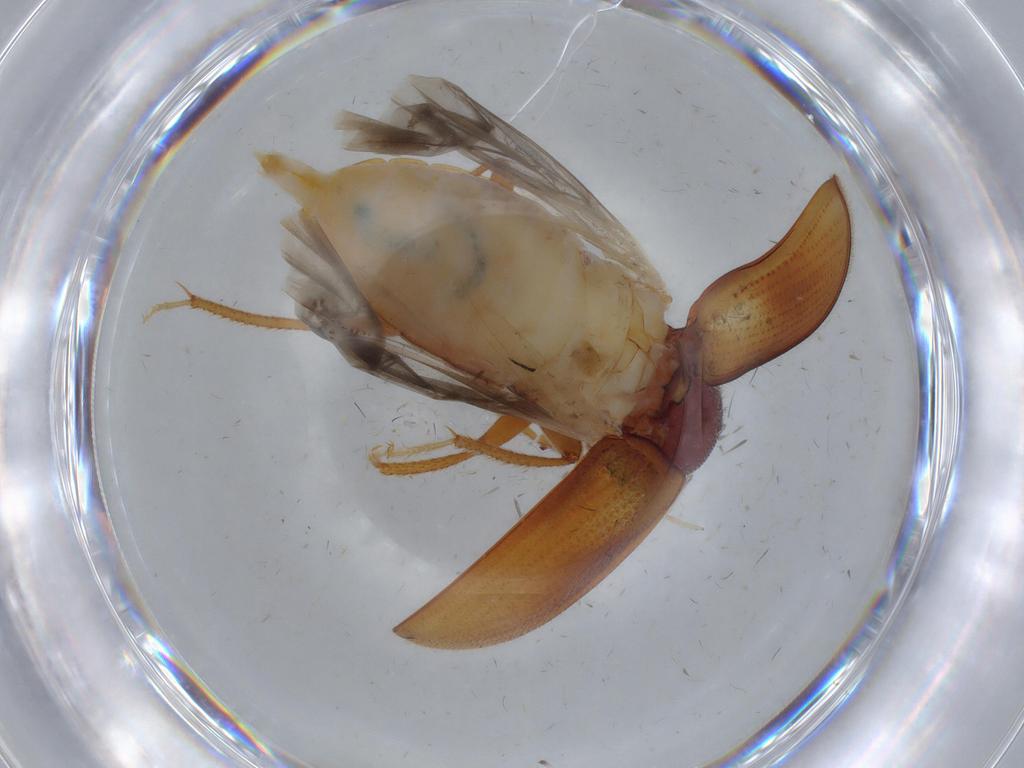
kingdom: Animalia
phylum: Arthropoda
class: Insecta
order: Coleoptera
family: Ptilodactylidae
